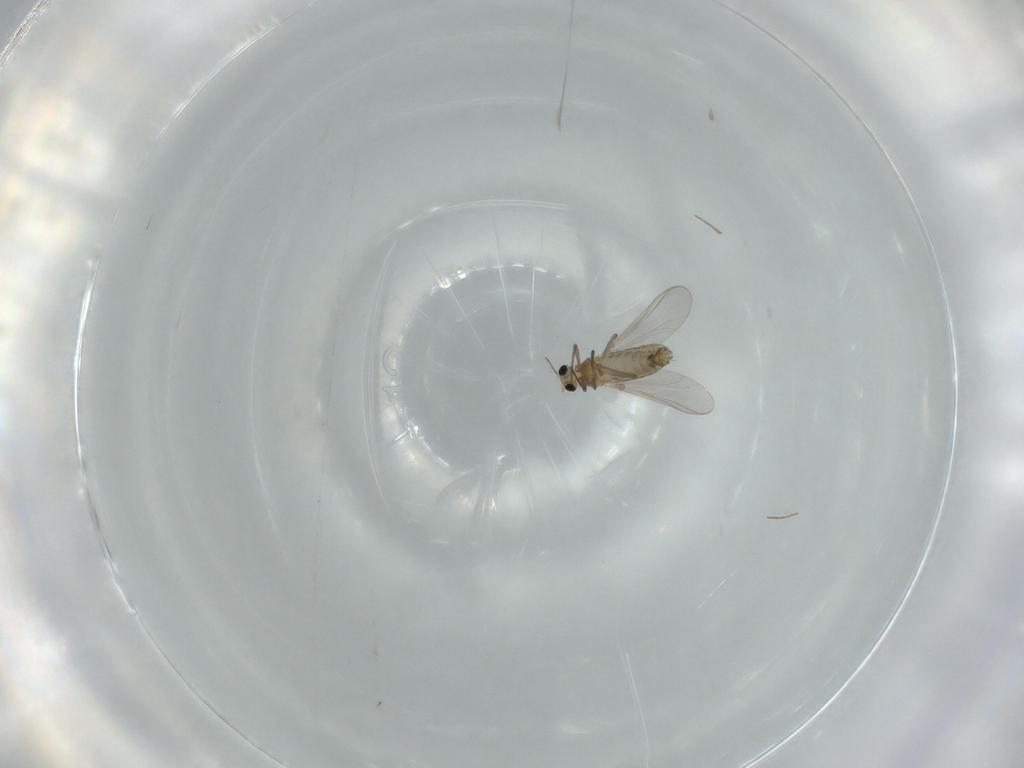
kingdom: Animalia
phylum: Arthropoda
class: Insecta
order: Diptera
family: Chironomidae
